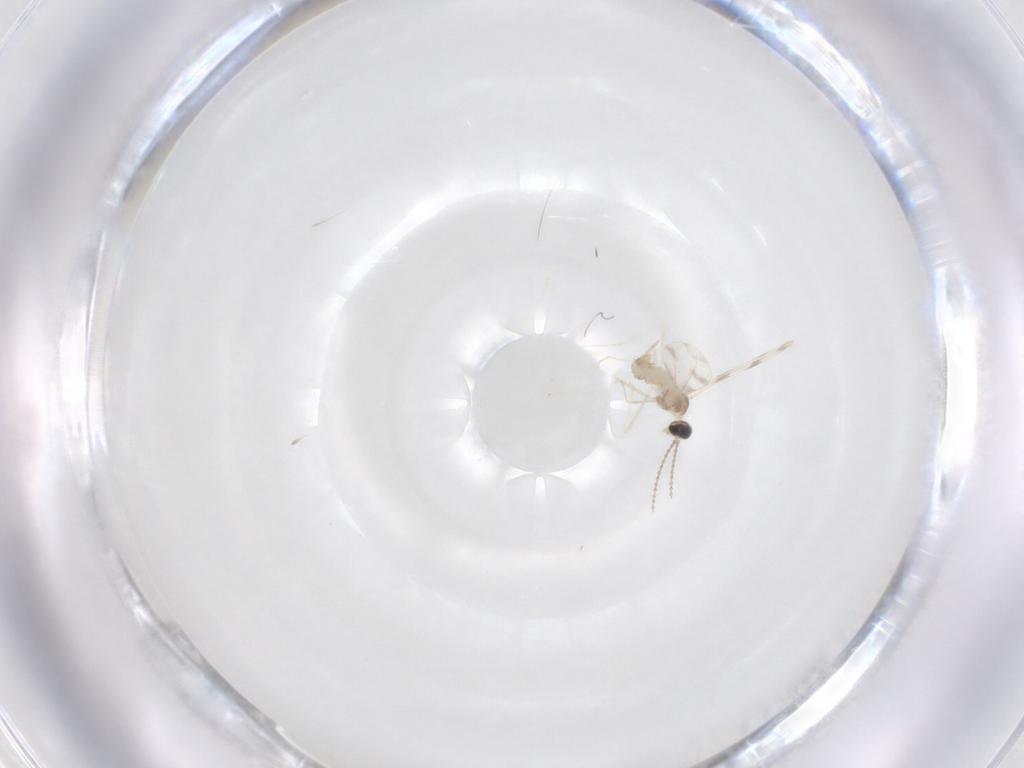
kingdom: Animalia
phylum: Arthropoda
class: Insecta
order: Diptera
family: Cecidomyiidae
